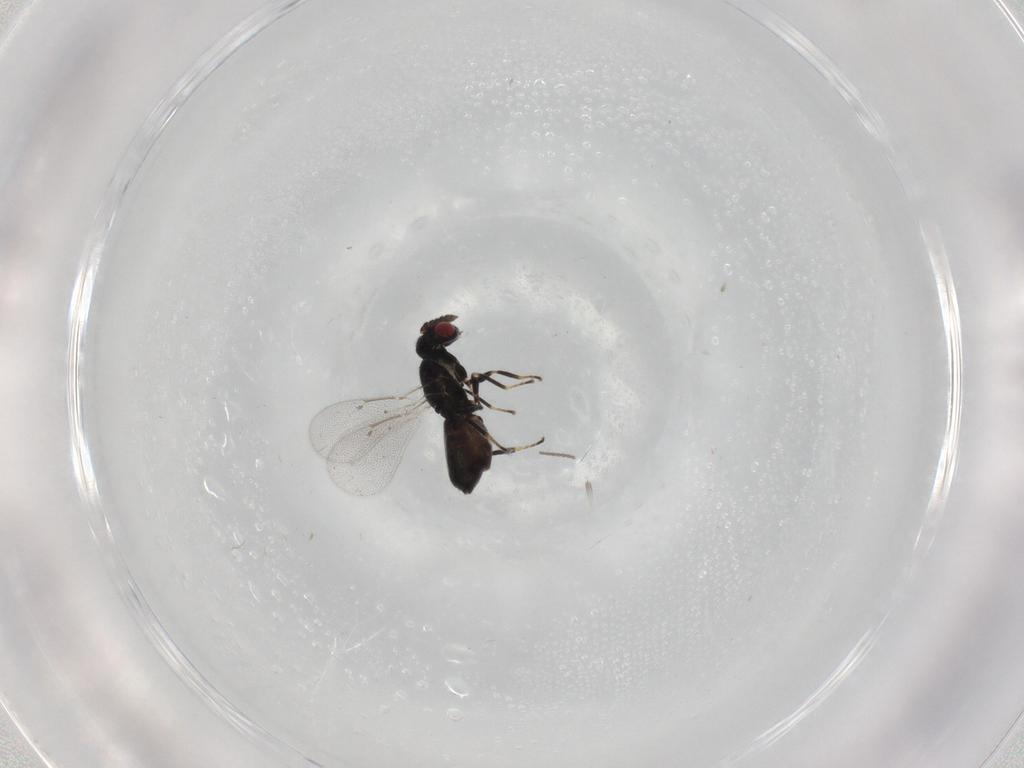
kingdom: Animalia
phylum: Arthropoda
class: Insecta
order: Hymenoptera
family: Eulophidae
